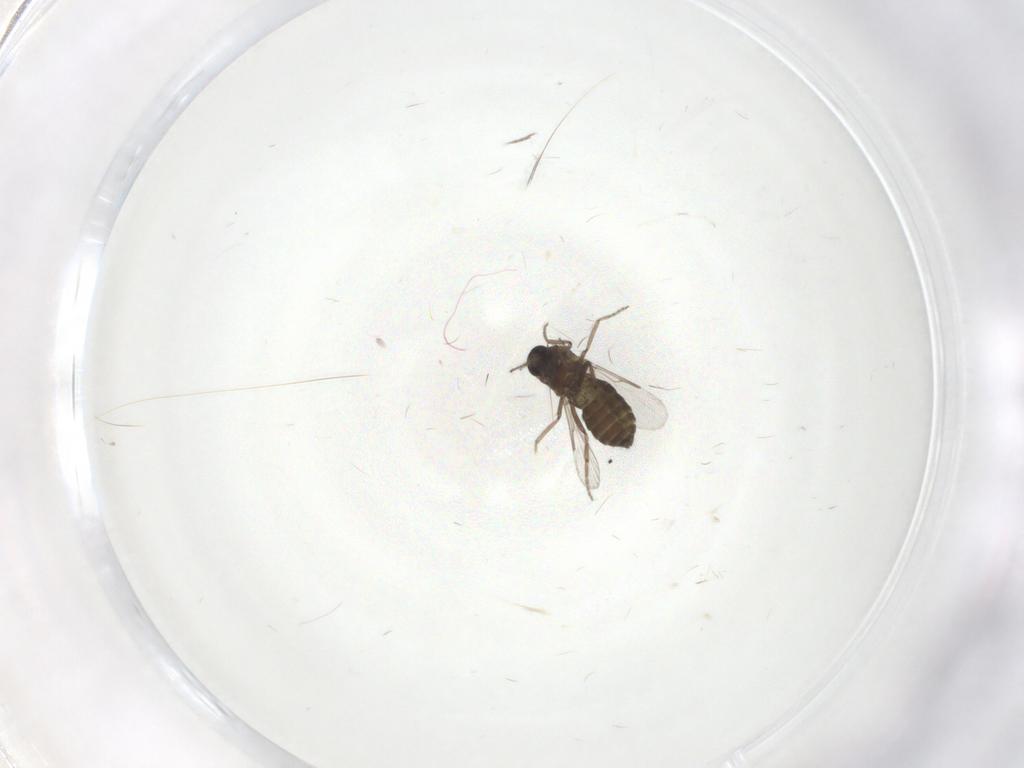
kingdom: Animalia
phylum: Arthropoda
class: Insecta
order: Diptera
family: Ceratopogonidae
